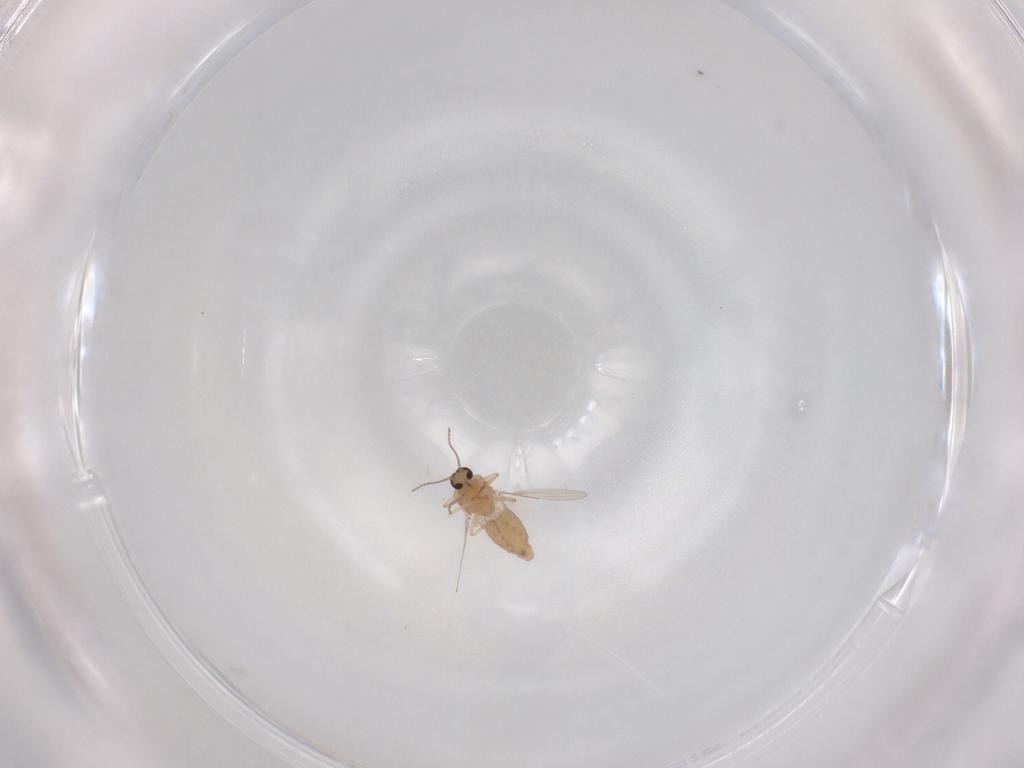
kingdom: Animalia
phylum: Arthropoda
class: Insecta
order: Diptera
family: Ceratopogonidae
